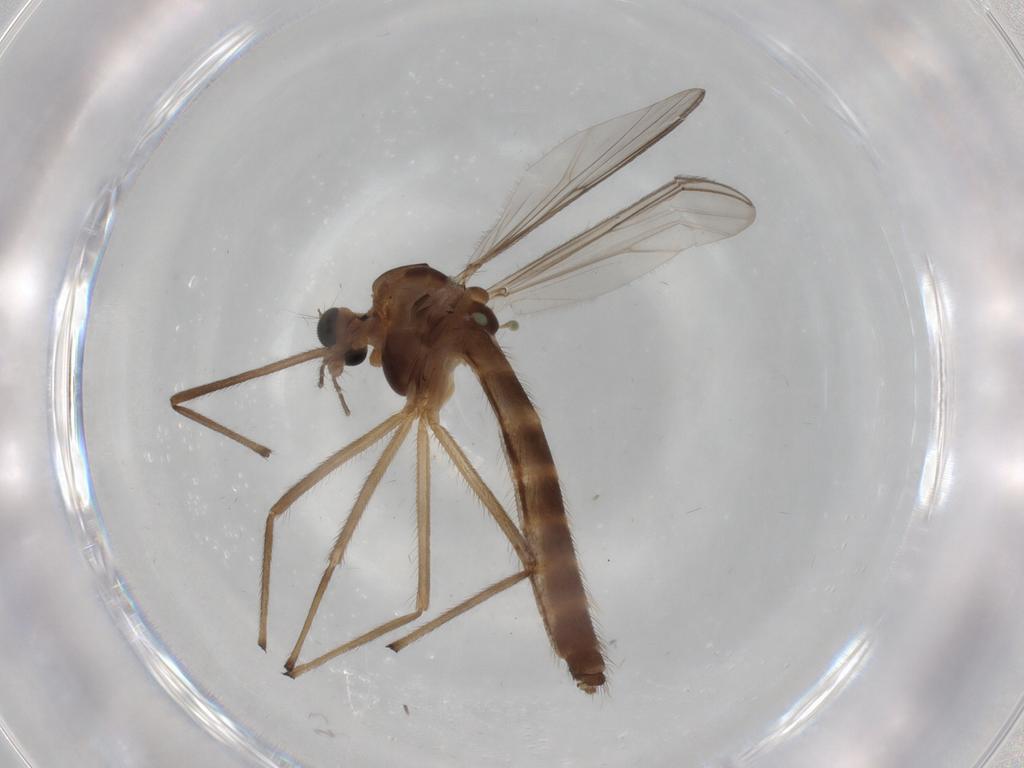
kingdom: Animalia
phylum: Arthropoda
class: Insecta
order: Diptera
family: Chironomidae
